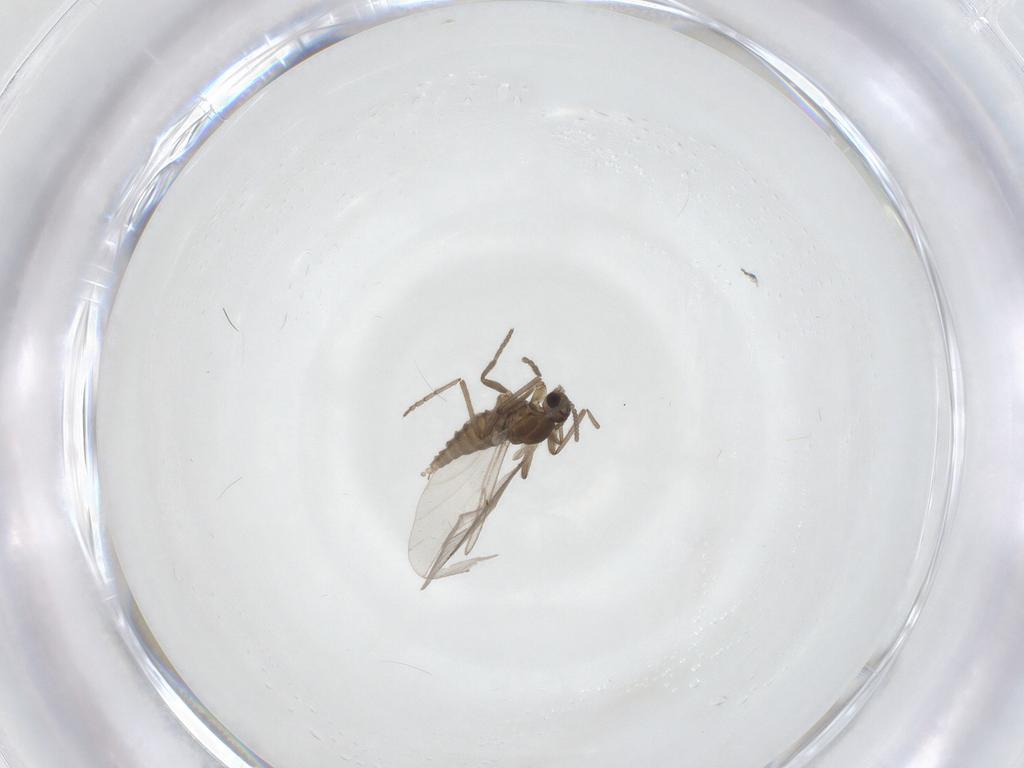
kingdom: Animalia
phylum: Arthropoda
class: Insecta
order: Diptera
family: Cecidomyiidae
